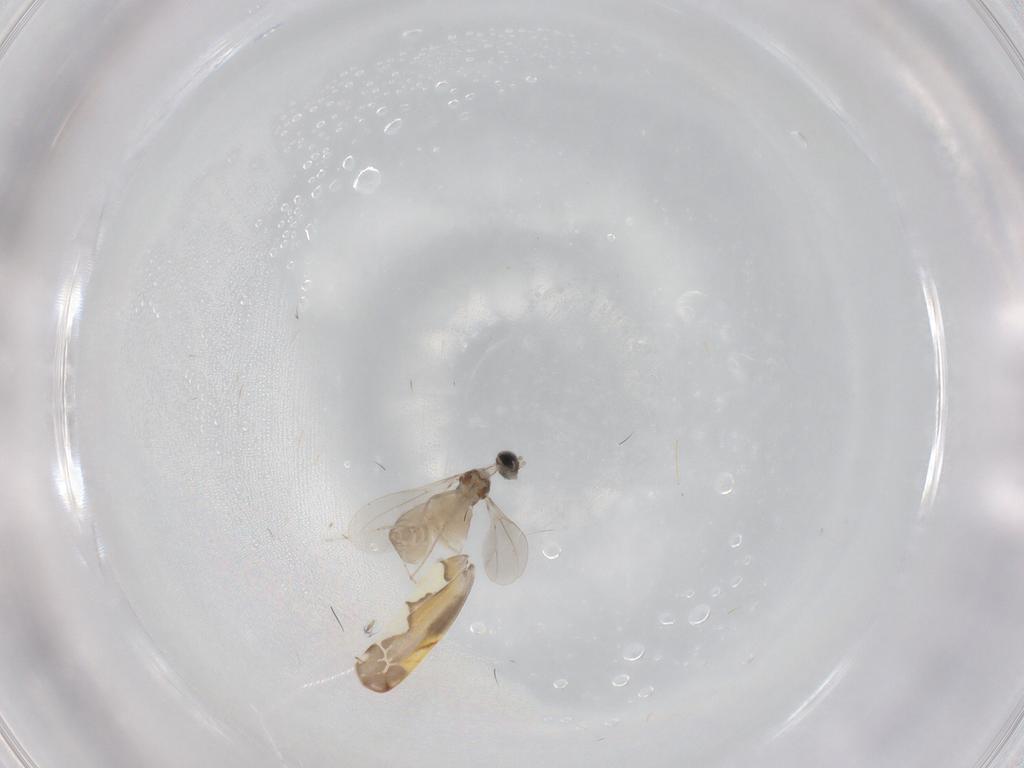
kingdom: Animalia
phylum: Arthropoda
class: Insecta
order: Diptera
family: Cecidomyiidae
